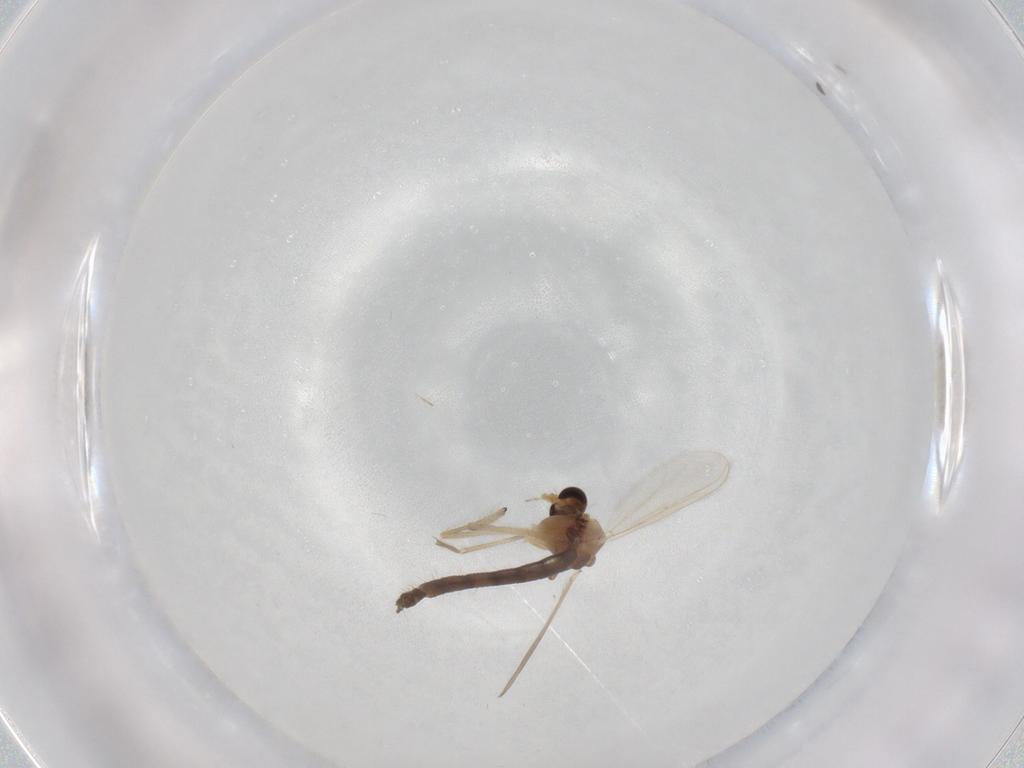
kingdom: Animalia
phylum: Arthropoda
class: Insecta
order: Diptera
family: Chironomidae
